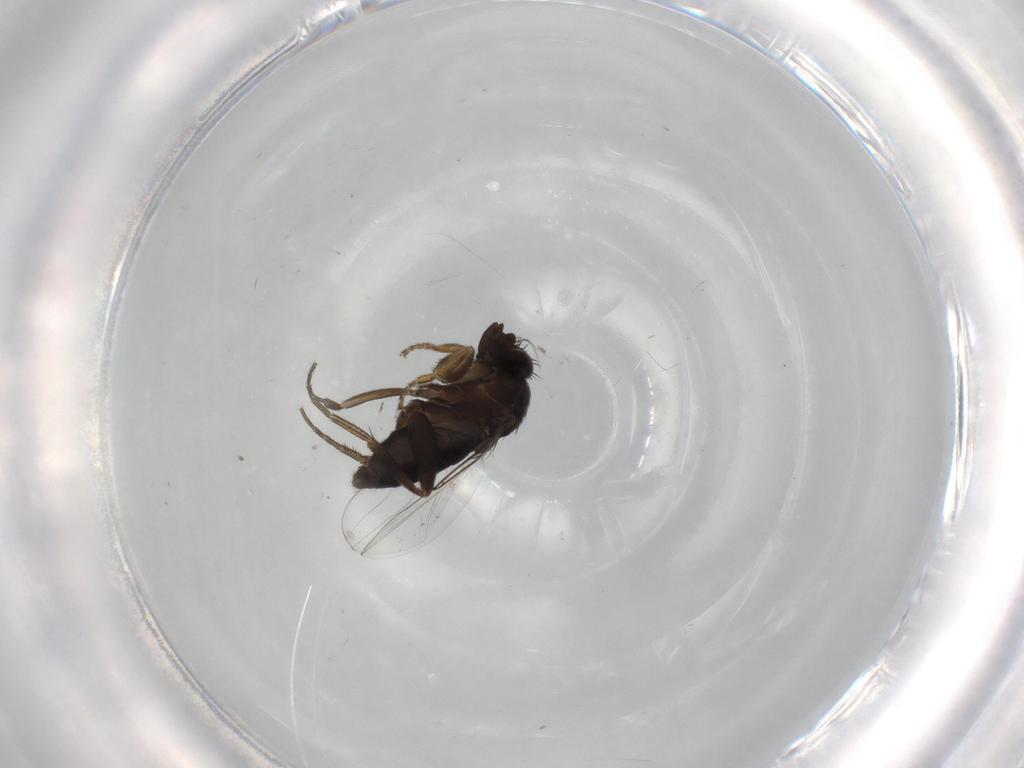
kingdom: Animalia
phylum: Arthropoda
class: Insecta
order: Diptera
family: Phoridae
